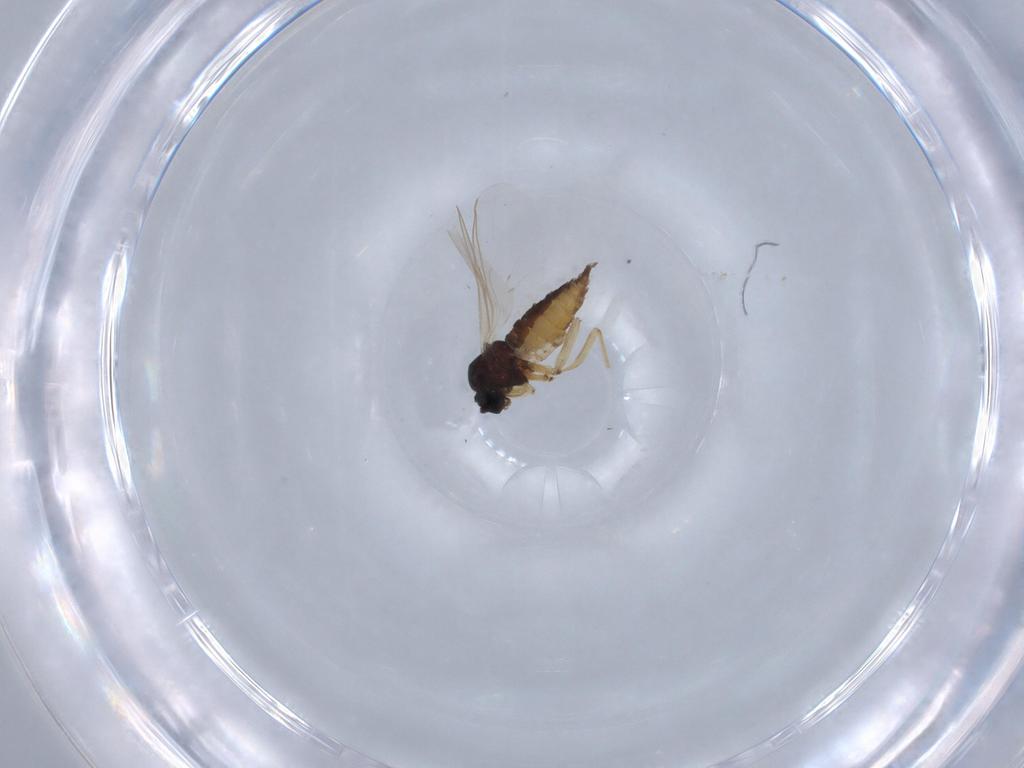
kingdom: Animalia
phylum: Arthropoda
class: Insecta
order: Diptera
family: Sciaridae
